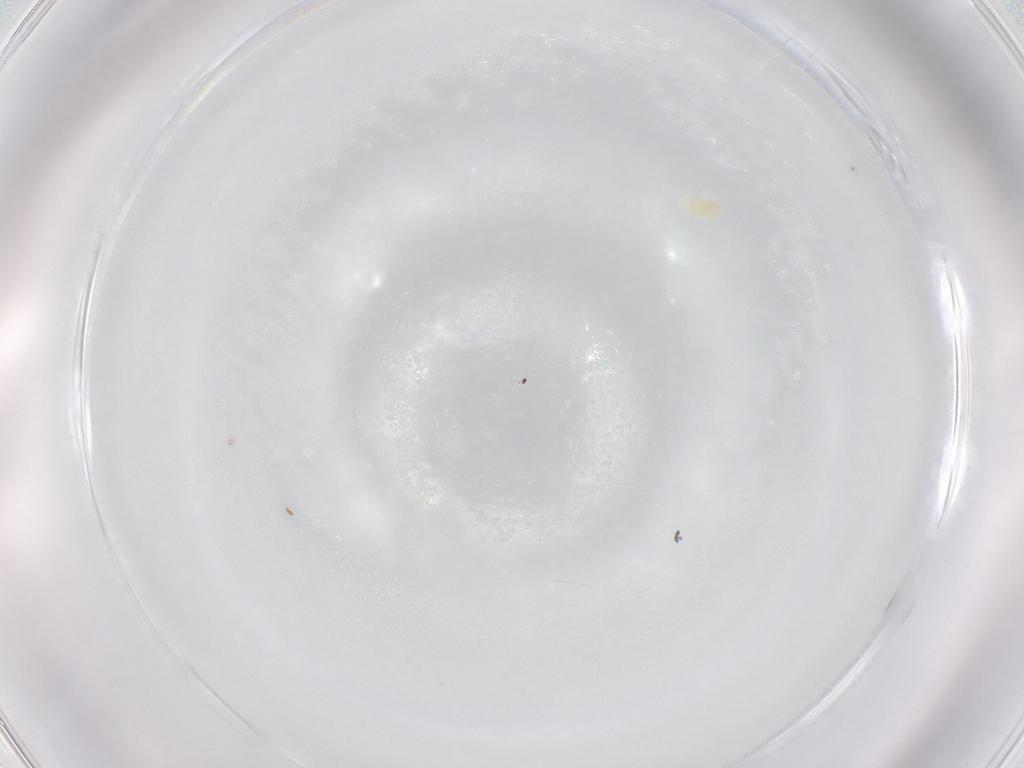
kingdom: Animalia
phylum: Arthropoda
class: Arachnida
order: Trombidiformes
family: Eupodidae
